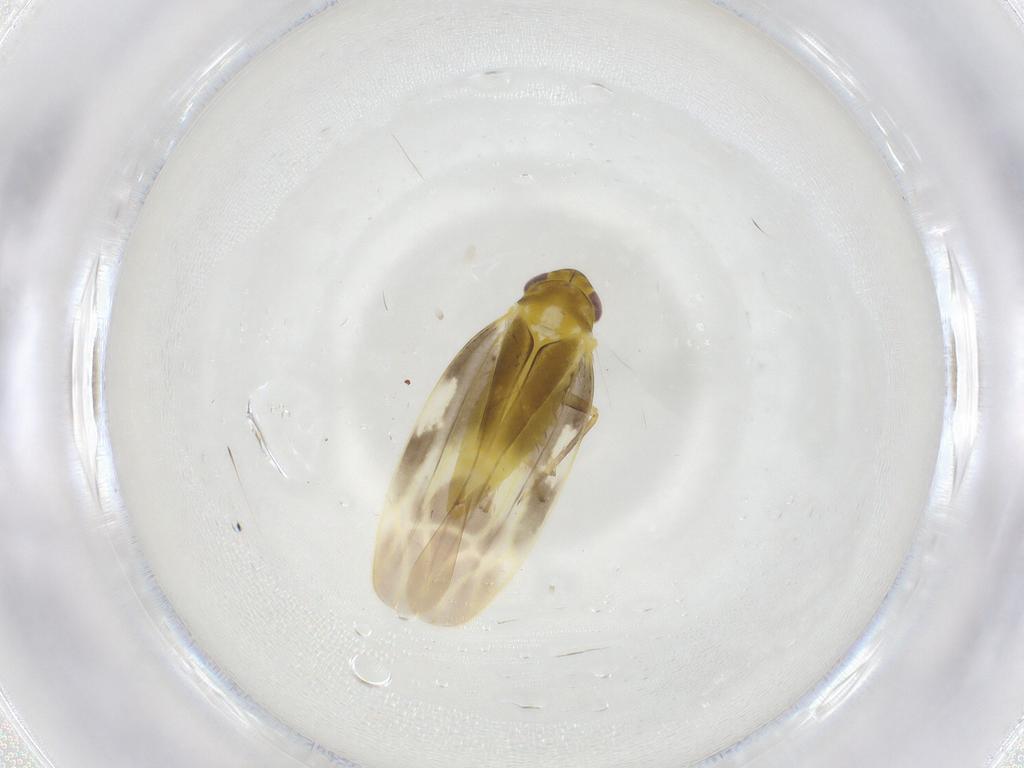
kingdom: Animalia
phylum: Arthropoda
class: Insecta
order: Hemiptera
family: Cicadellidae
